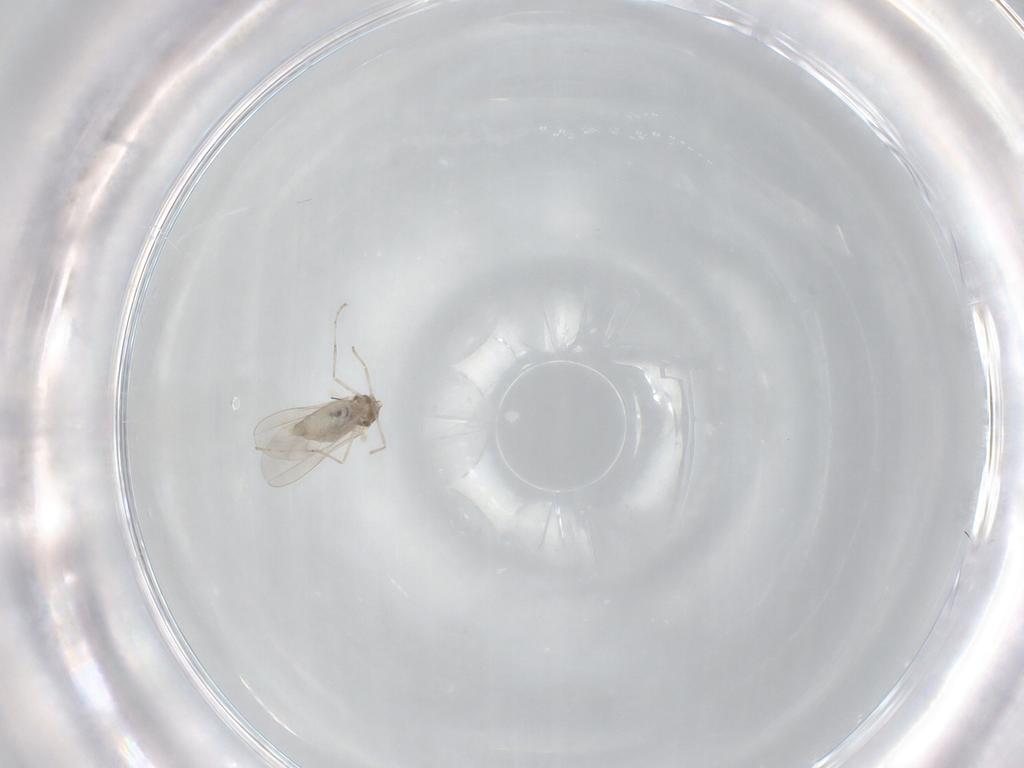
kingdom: Animalia
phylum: Arthropoda
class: Insecta
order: Diptera
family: Cecidomyiidae
